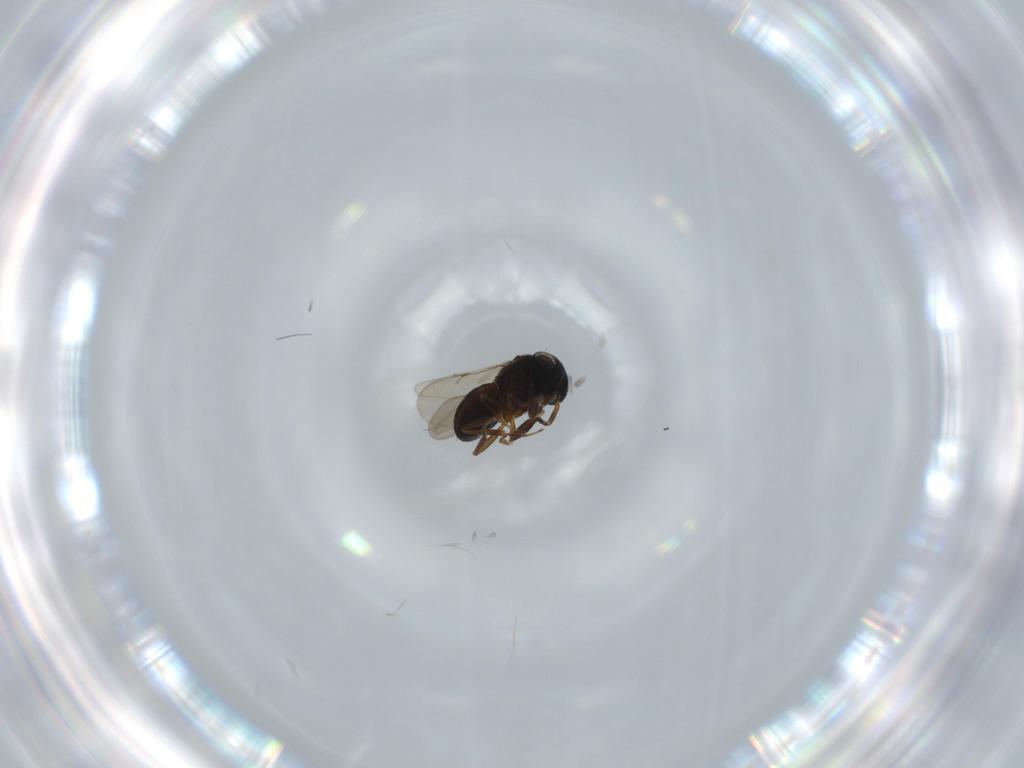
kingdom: Animalia
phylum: Arthropoda
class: Insecta
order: Hymenoptera
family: Scelionidae
